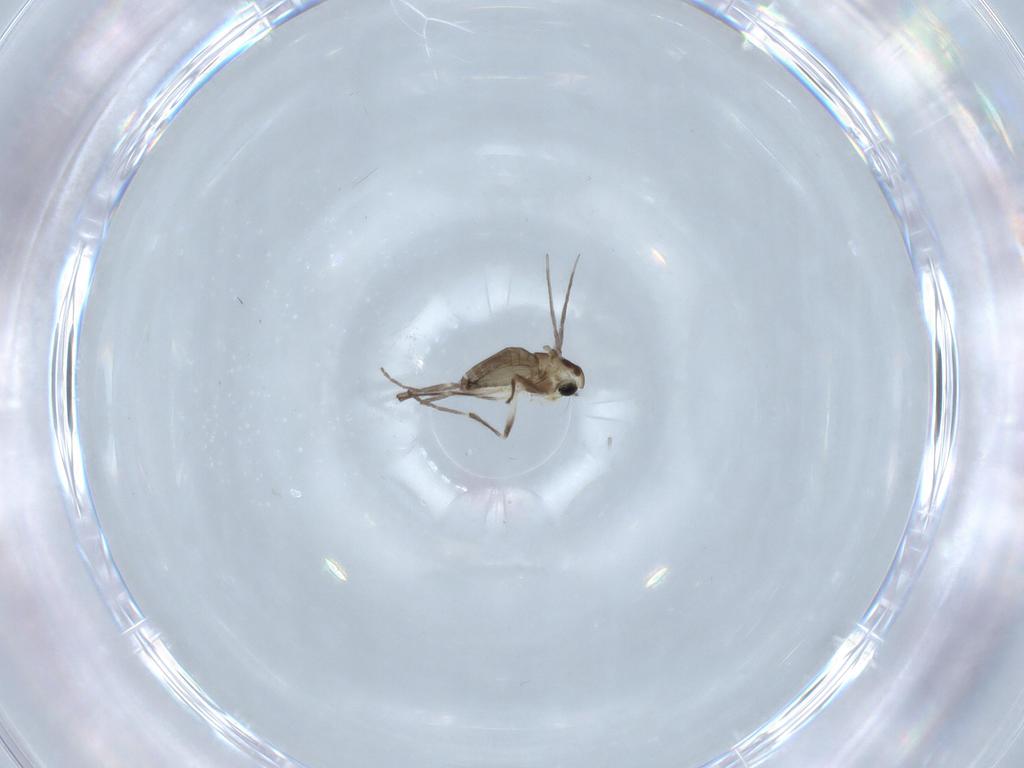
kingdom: Animalia
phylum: Arthropoda
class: Insecta
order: Diptera
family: Chironomidae
